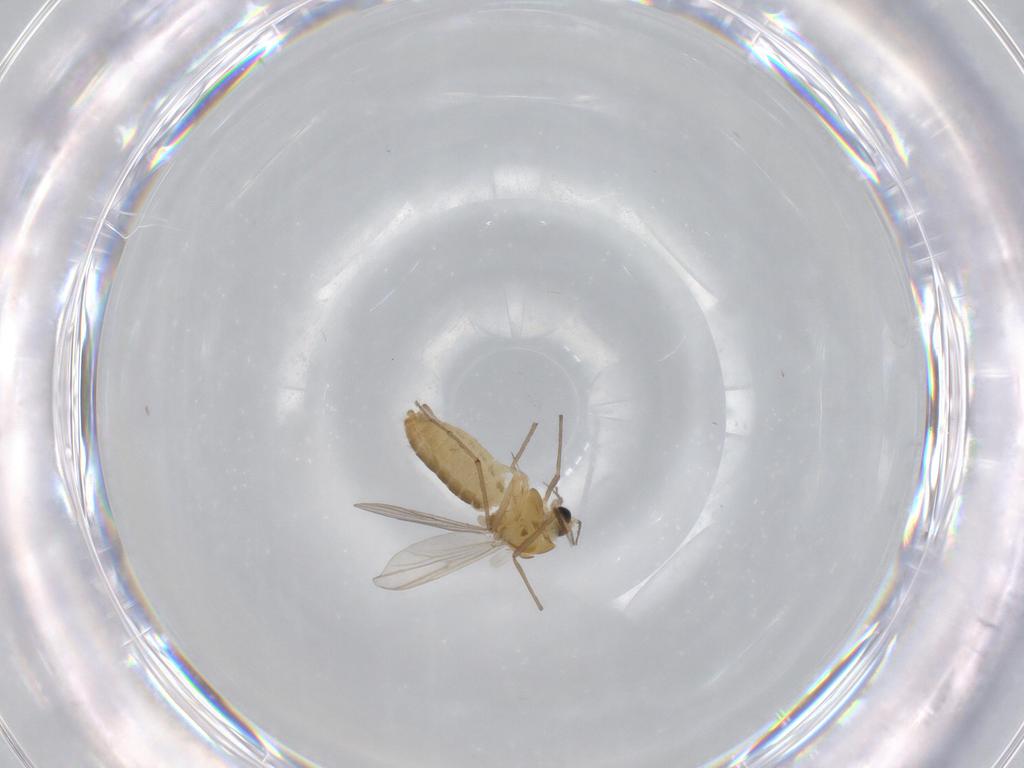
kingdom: Animalia
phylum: Arthropoda
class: Insecta
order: Diptera
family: Chironomidae
